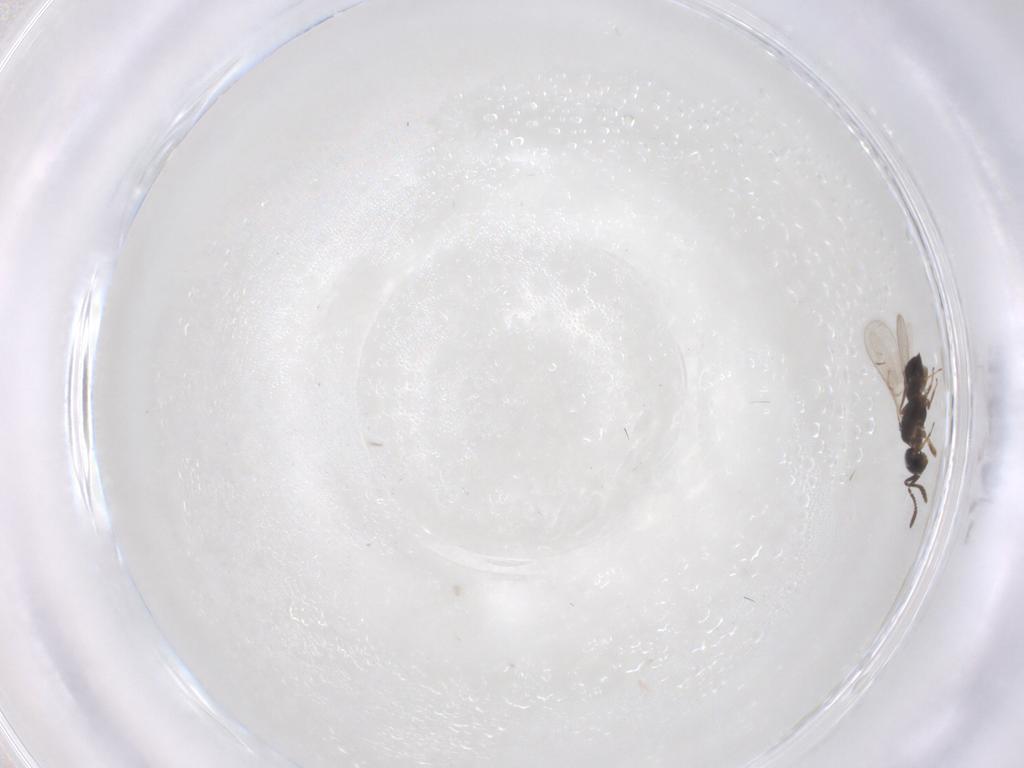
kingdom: Animalia
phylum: Arthropoda
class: Insecta
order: Hymenoptera
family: Scelionidae
